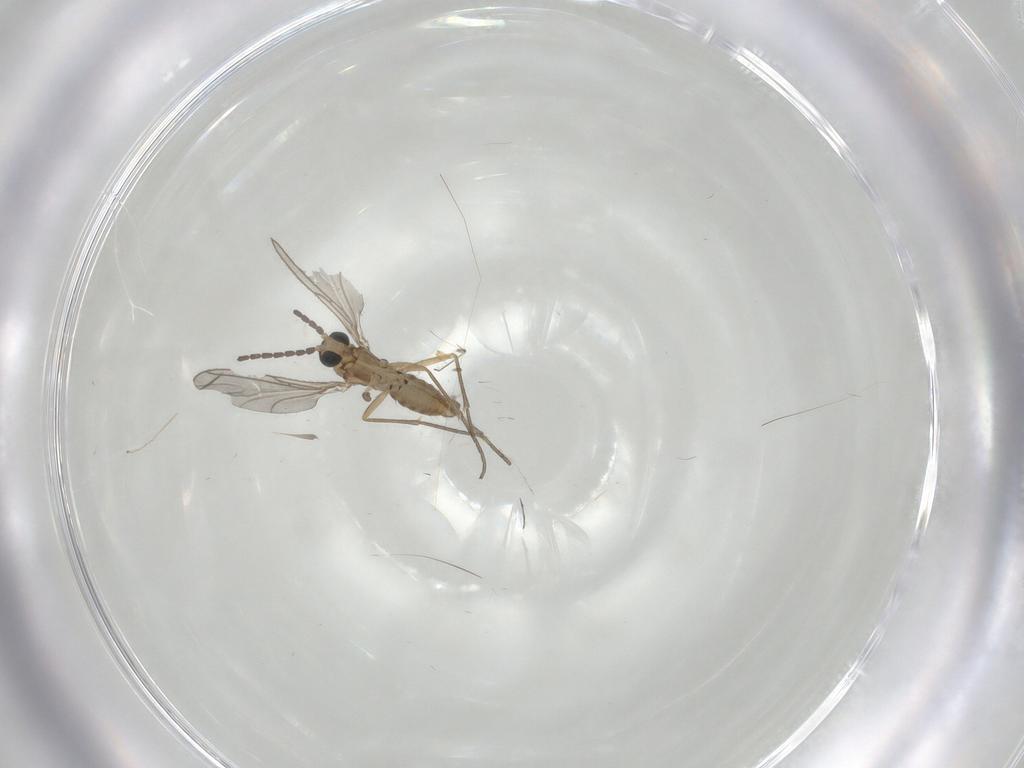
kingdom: Animalia
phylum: Arthropoda
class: Insecta
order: Diptera
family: Sciaridae
